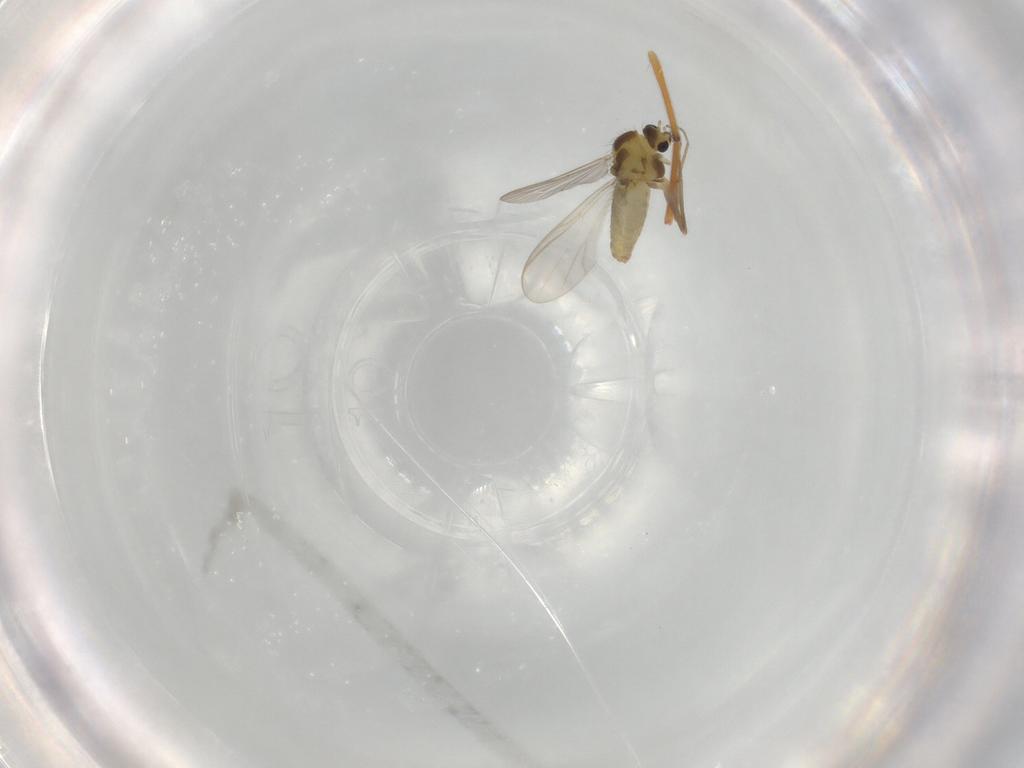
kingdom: Animalia
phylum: Arthropoda
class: Insecta
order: Diptera
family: Chironomidae
